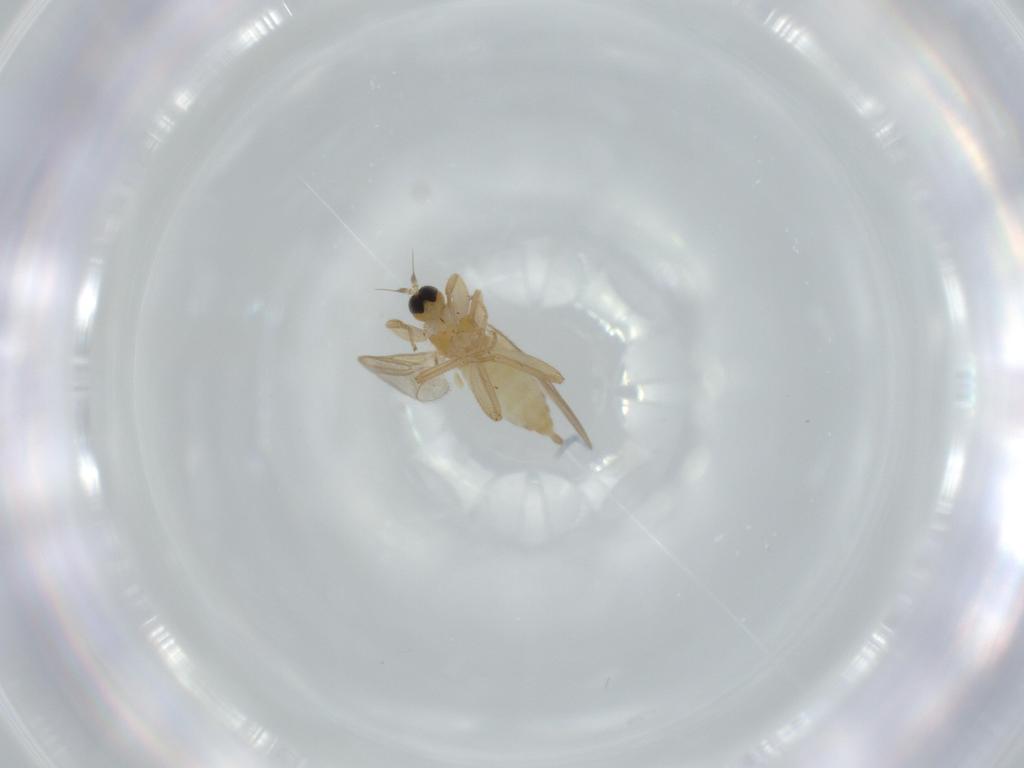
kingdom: Animalia
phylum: Arthropoda
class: Insecta
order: Diptera
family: Hybotidae
